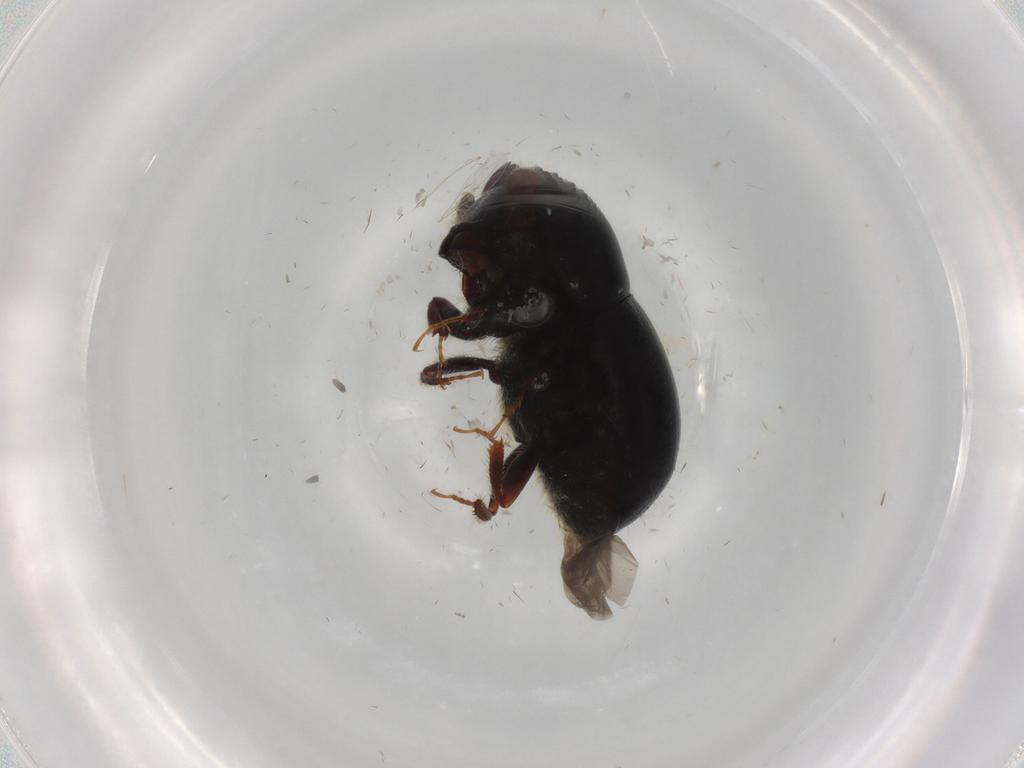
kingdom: Animalia
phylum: Arthropoda
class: Insecta
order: Coleoptera
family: Curculionidae
